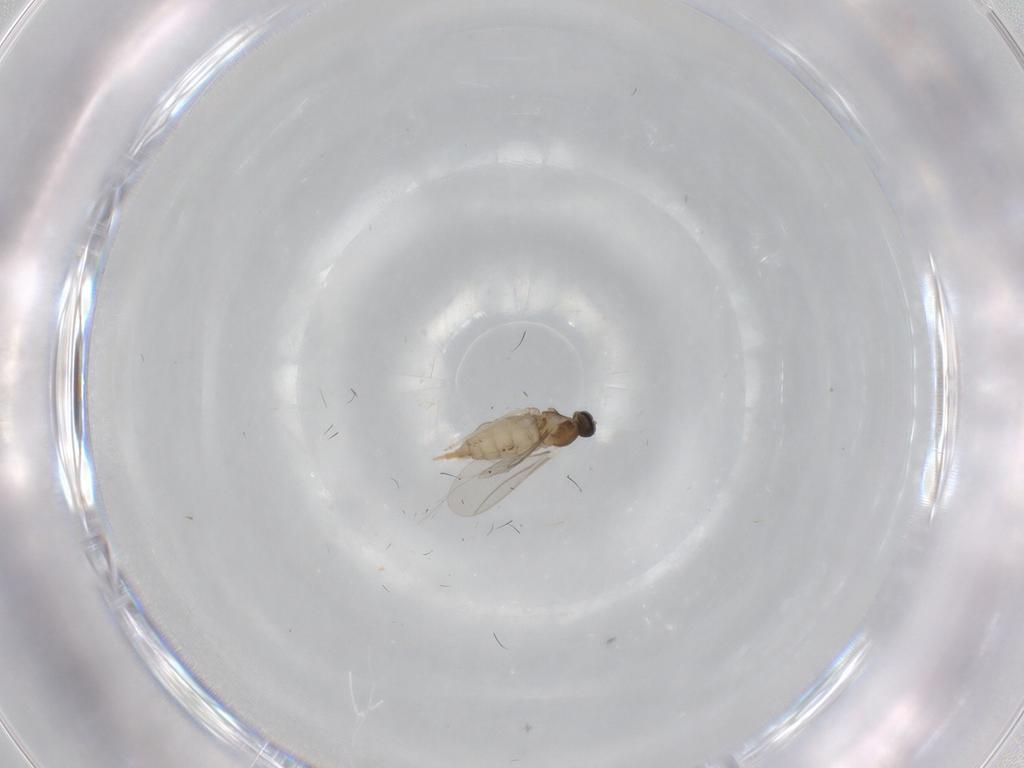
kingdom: Animalia
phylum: Arthropoda
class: Insecta
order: Diptera
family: Cecidomyiidae
